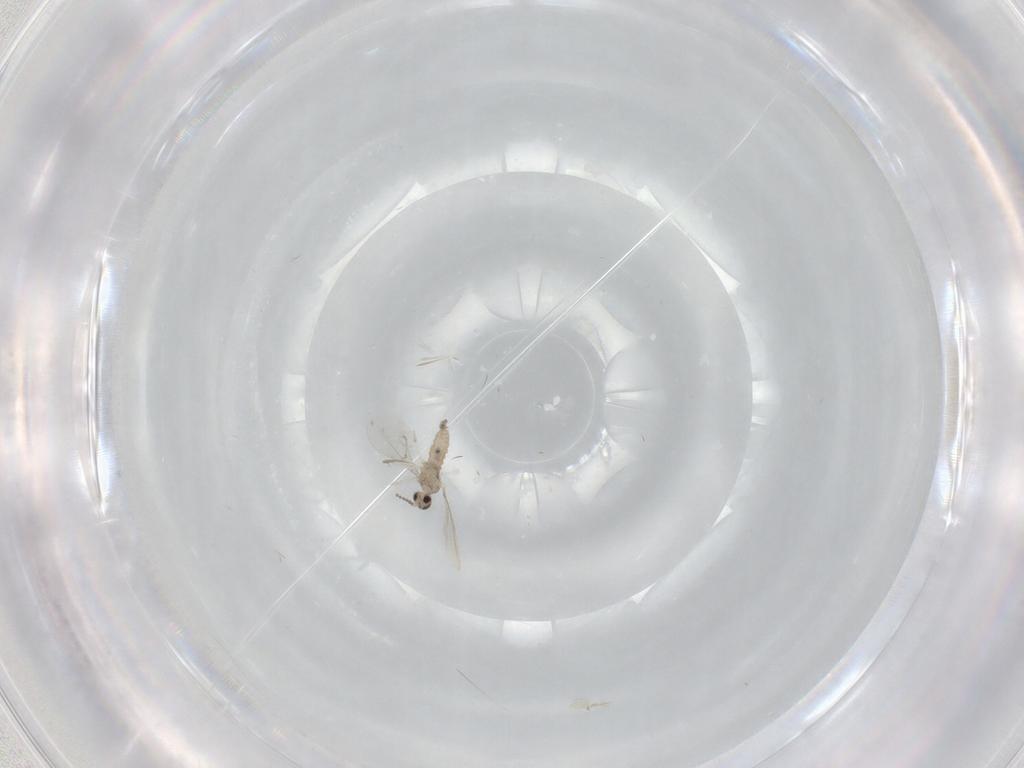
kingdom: Animalia
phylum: Arthropoda
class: Insecta
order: Diptera
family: Cecidomyiidae
